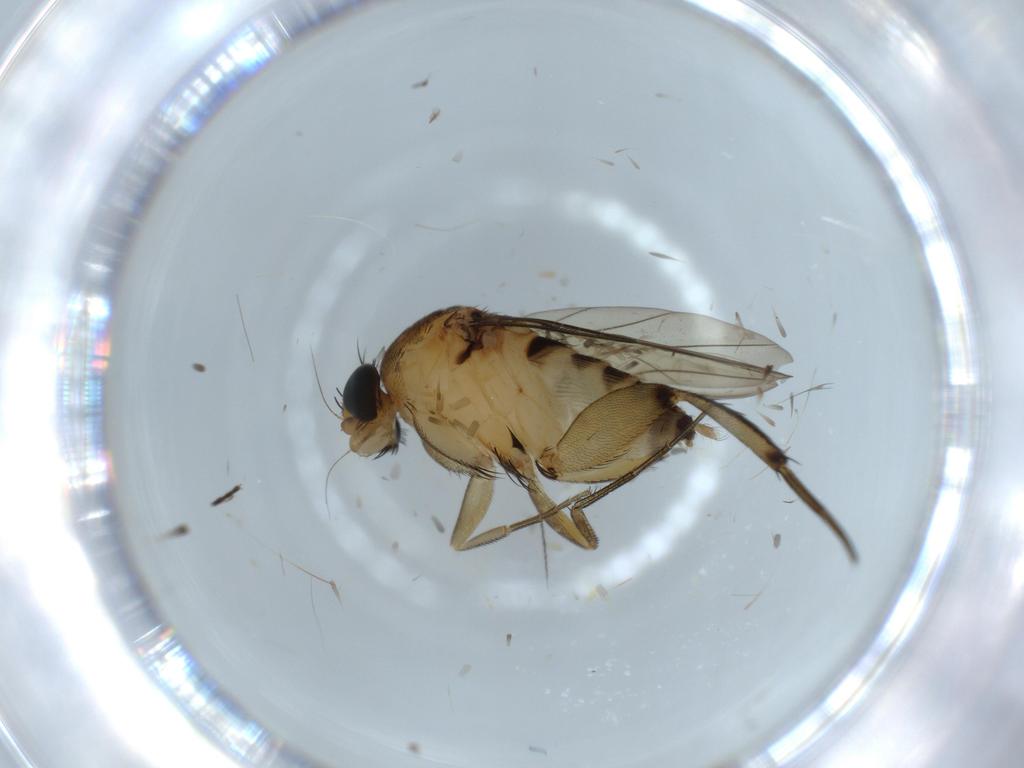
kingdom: Animalia
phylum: Arthropoda
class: Insecta
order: Diptera
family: Phoridae
